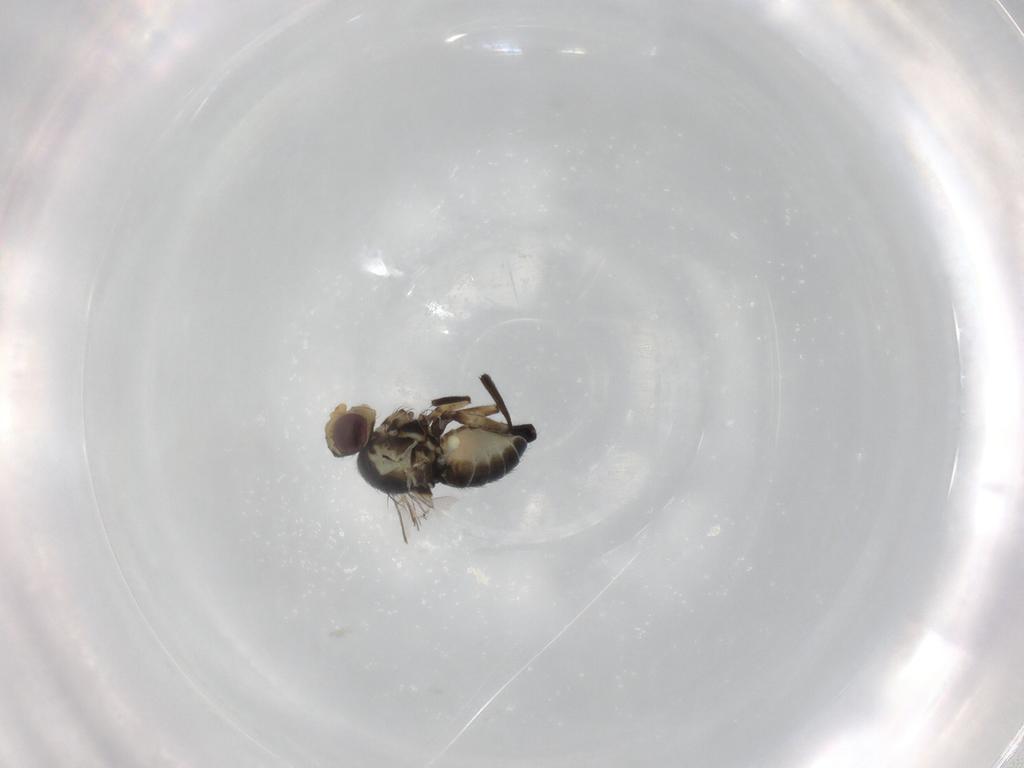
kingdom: Animalia
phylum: Arthropoda
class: Insecta
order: Diptera
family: Agromyzidae
